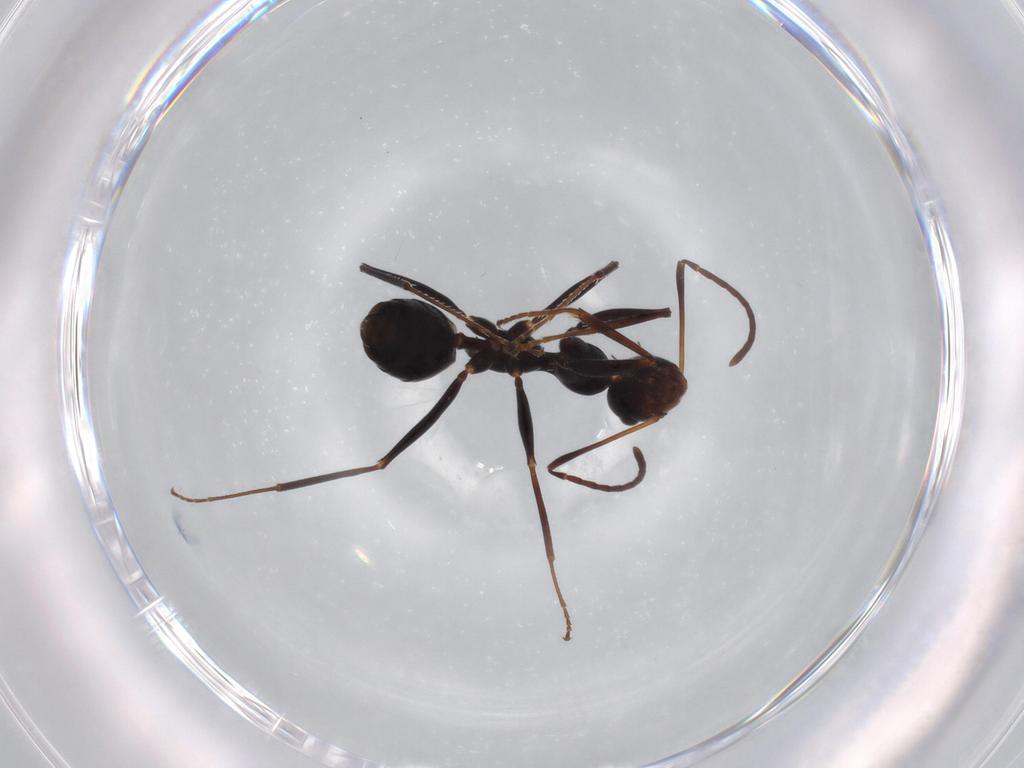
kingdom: Animalia
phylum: Arthropoda
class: Insecta
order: Hymenoptera
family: Formicidae
